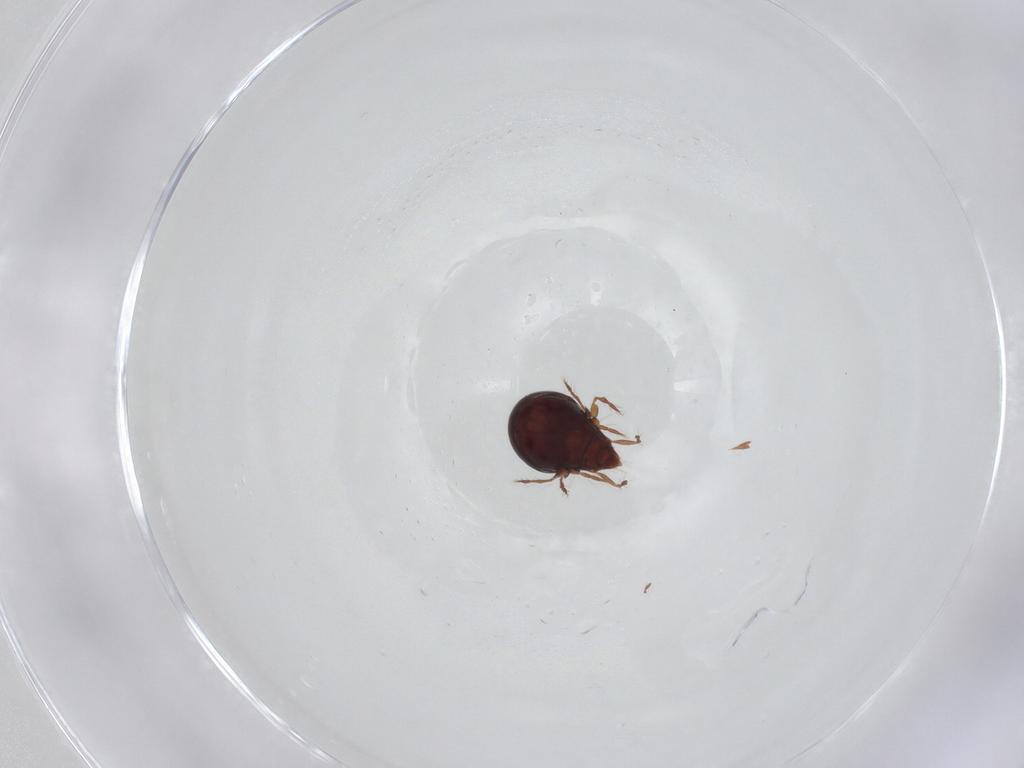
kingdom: Animalia
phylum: Arthropoda
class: Arachnida
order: Sarcoptiformes
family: Ceratoppiidae
